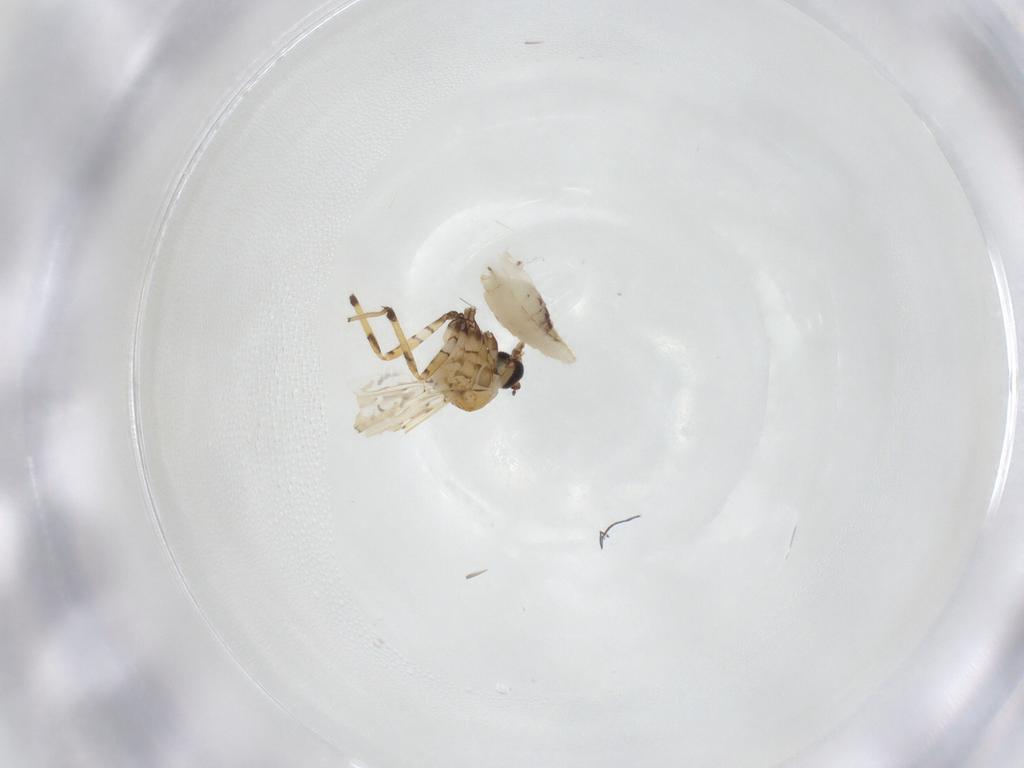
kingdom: Animalia
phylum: Arthropoda
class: Insecta
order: Diptera
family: Ceratopogonidae
